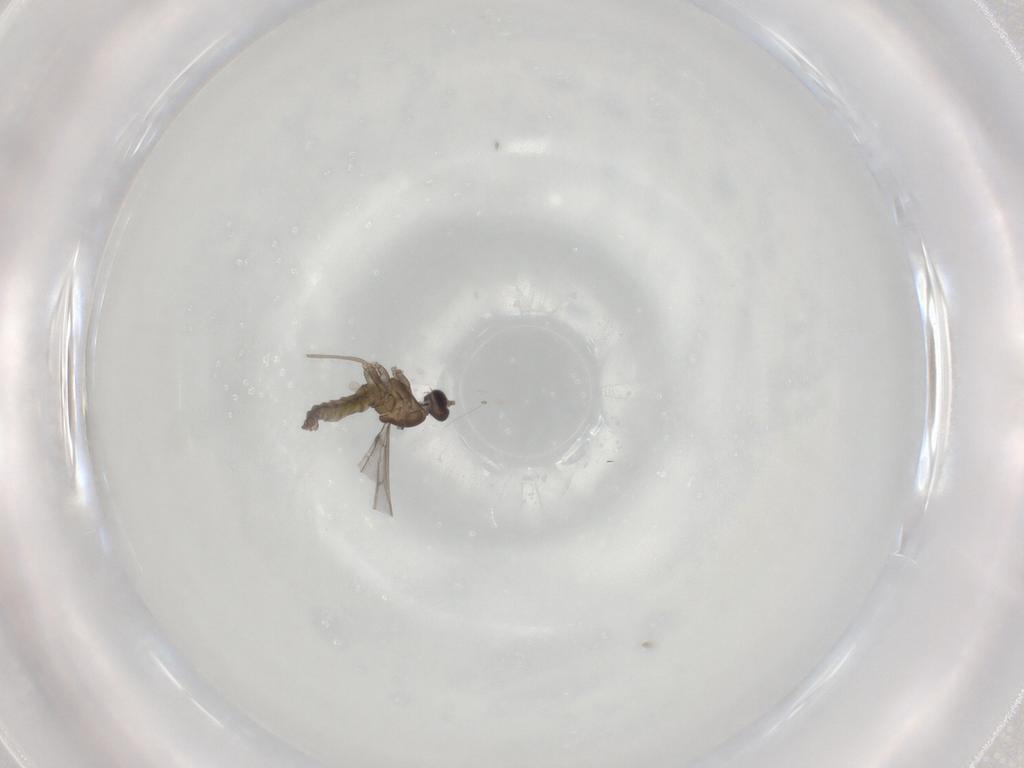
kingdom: Animalia
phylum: Arthropoda
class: Insecta
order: Diptera
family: Cecidomyiidae
